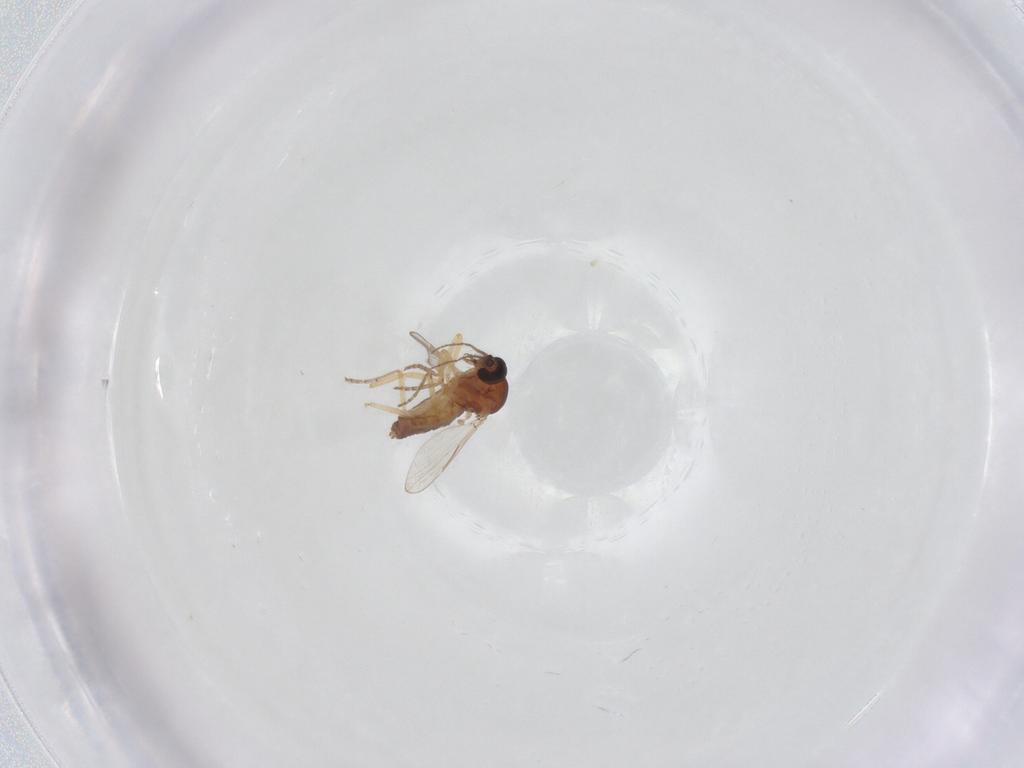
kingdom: Animalia
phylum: Arthropoda
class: Insecta
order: Diptera
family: Ceratopogonidae
